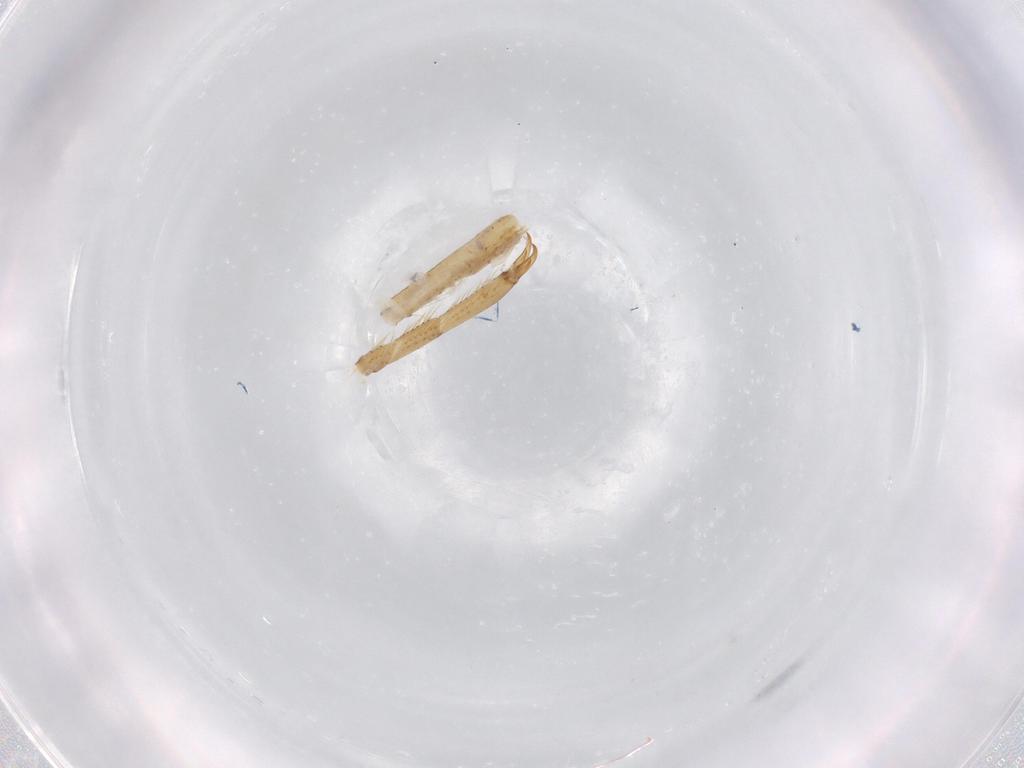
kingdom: Animalia
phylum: Arthropoda
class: Insecta
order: Odonata
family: Coenagrionidae
